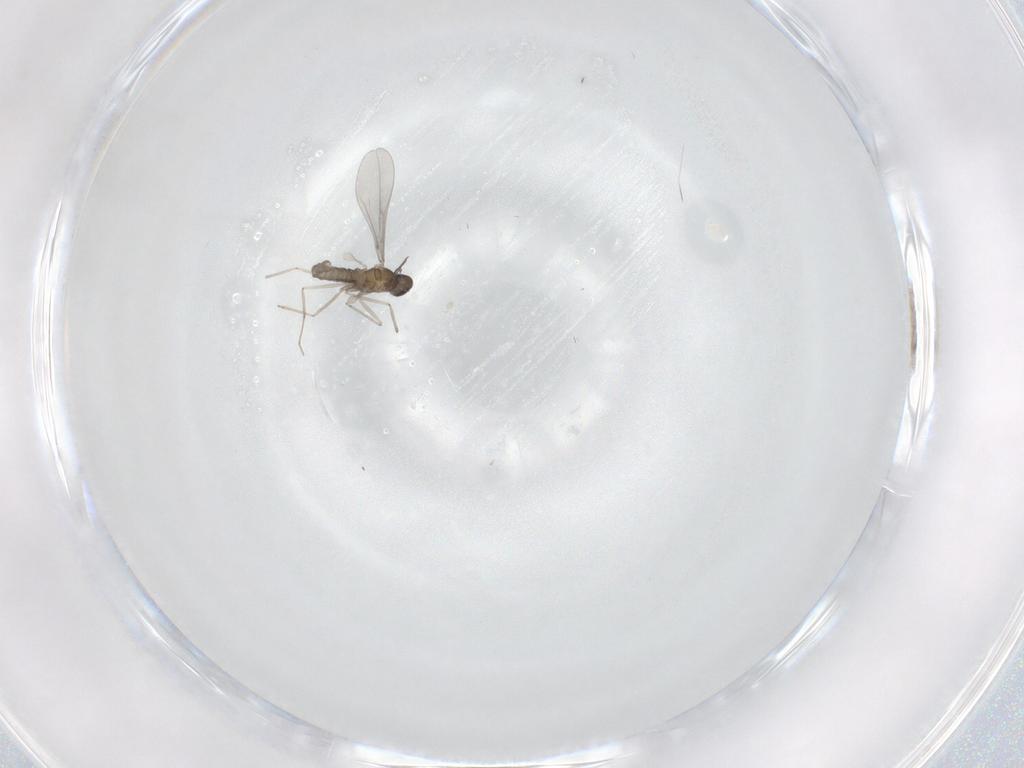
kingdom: Animalia
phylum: Arthropoda
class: Insecta
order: Diptera
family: Cecidomyiidae
